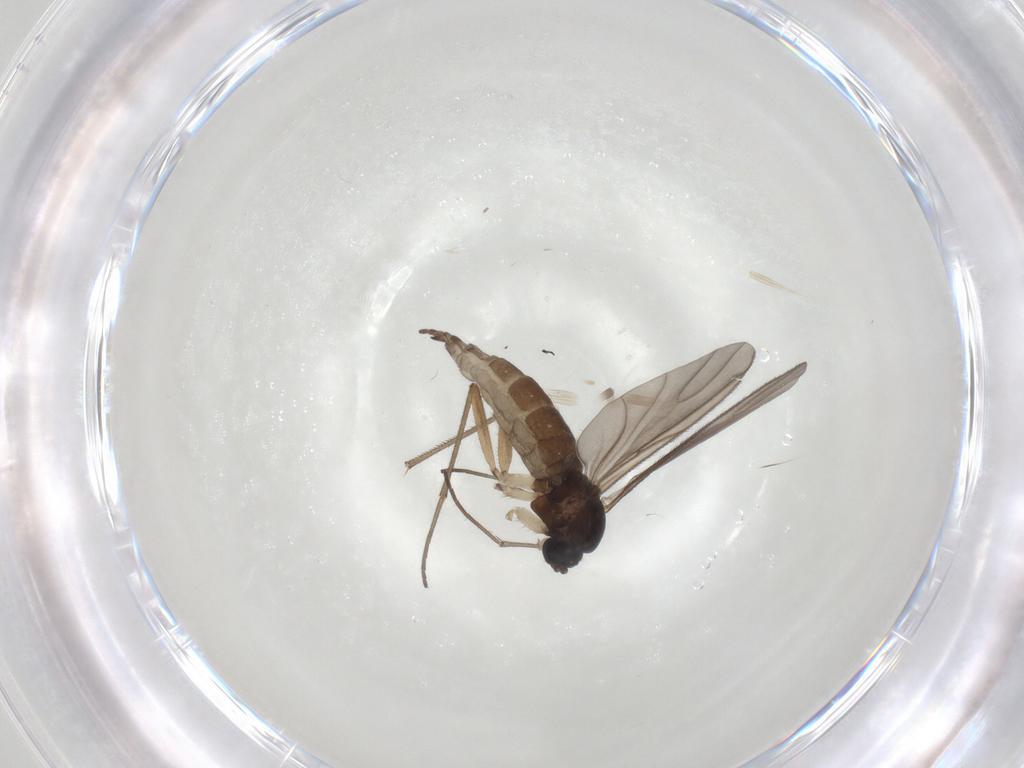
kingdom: Animalia
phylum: Arthropoda
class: Insecta
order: Diptera
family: Sciaridae
